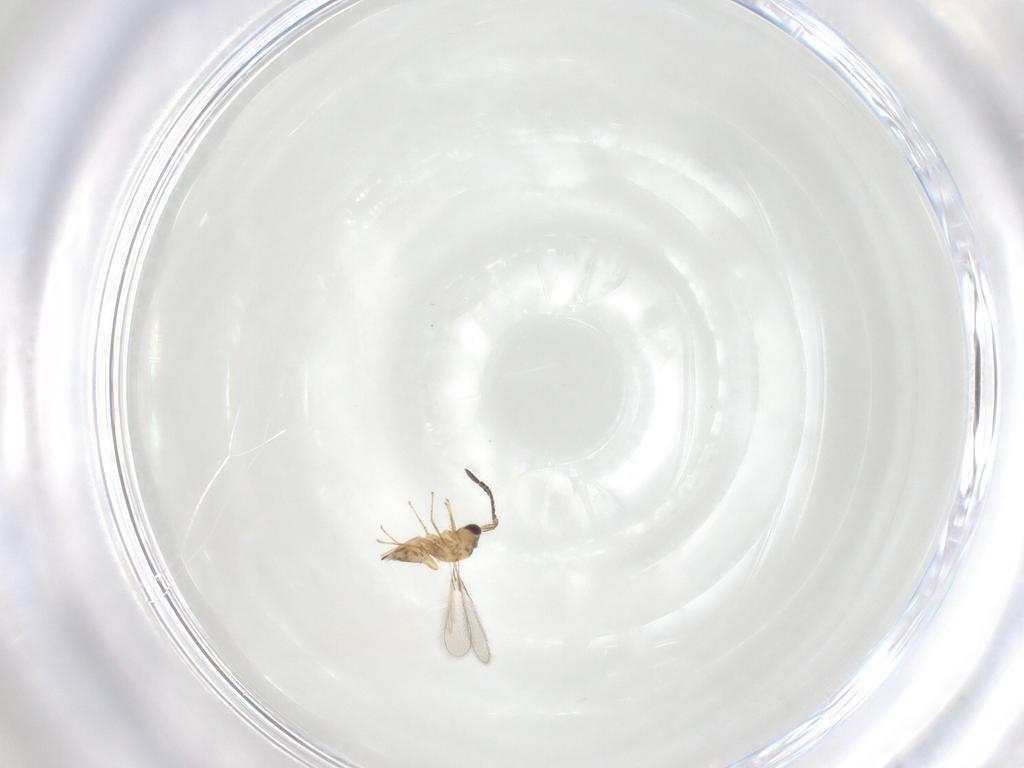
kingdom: Animalia
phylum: Arthropoda
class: Insecta
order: Hymenoptera
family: Mymaridae
